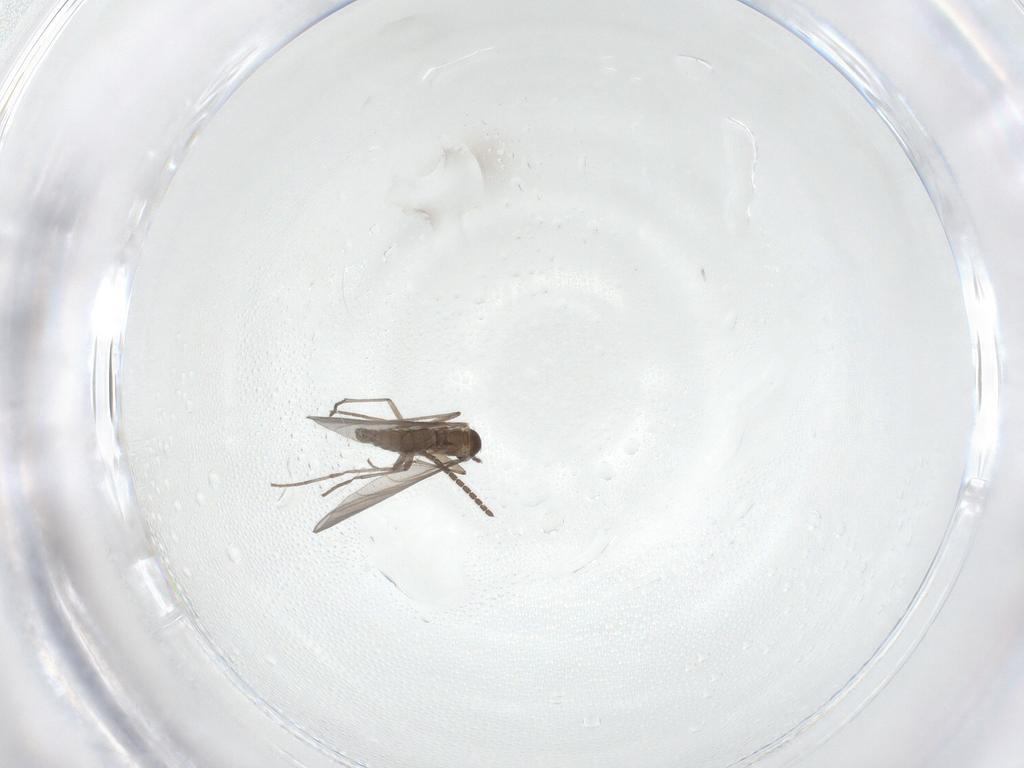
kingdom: Animalia
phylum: Arthropoda
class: Insecta
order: Diptera
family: Sciaridae
